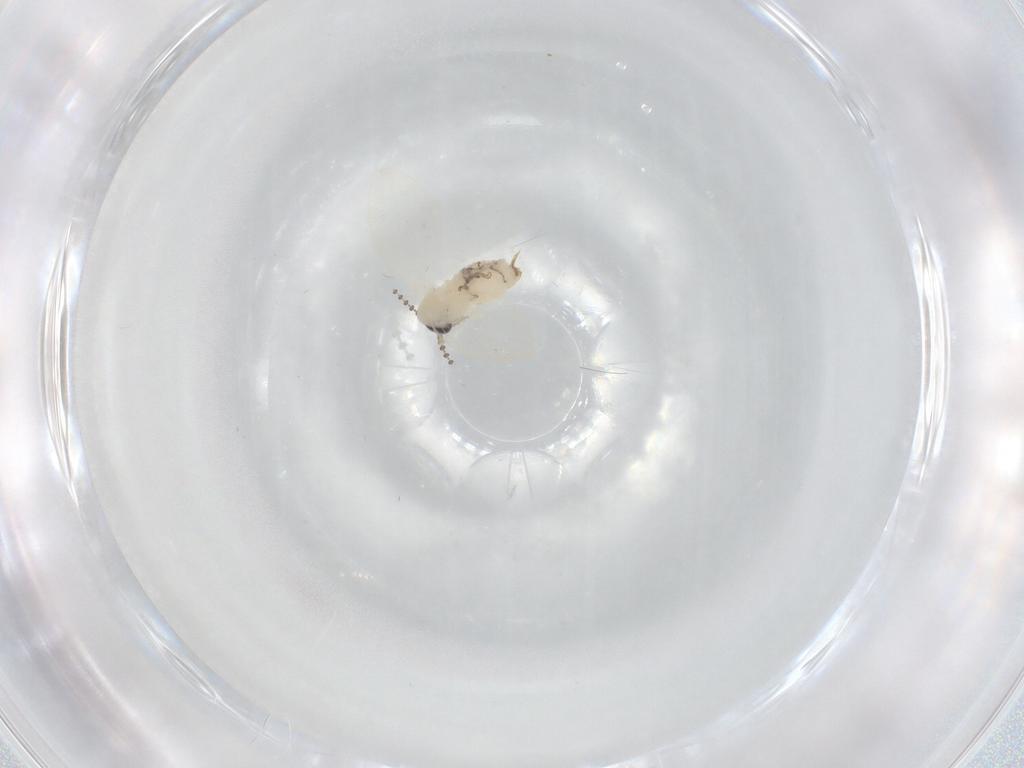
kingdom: Animalia
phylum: Arthropoda
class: Insecta
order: Diptera
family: Psychodidae
